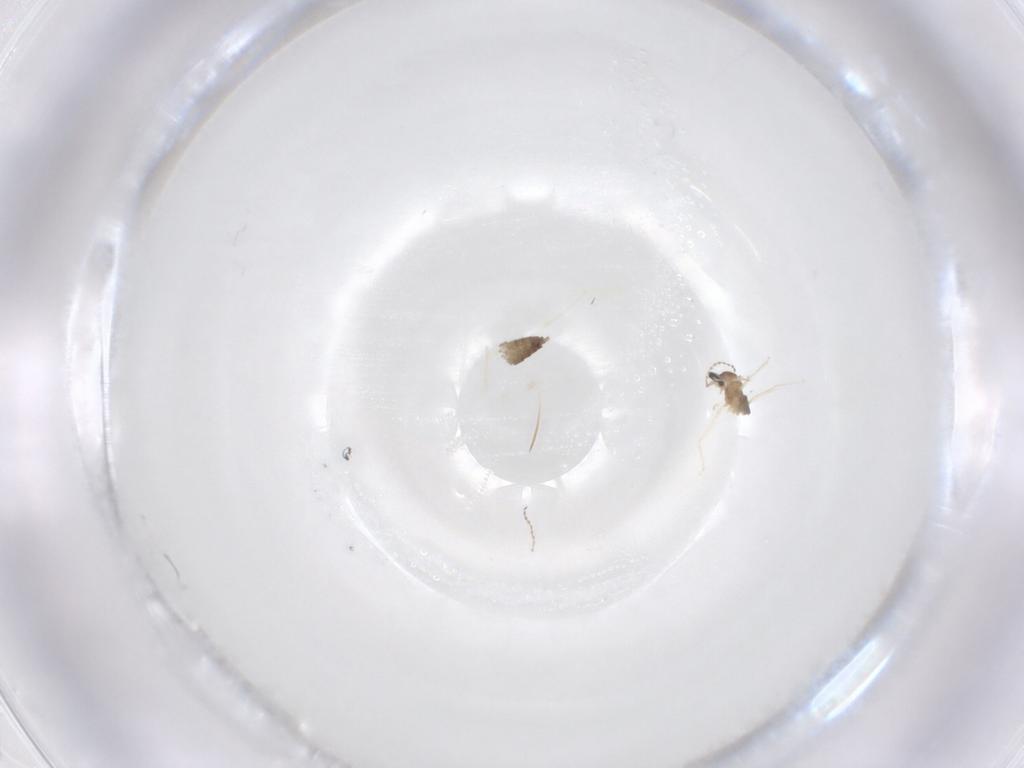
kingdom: Animalia
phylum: Arthropoda
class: Insecta
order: Diptera
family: Cecidomyiidae
